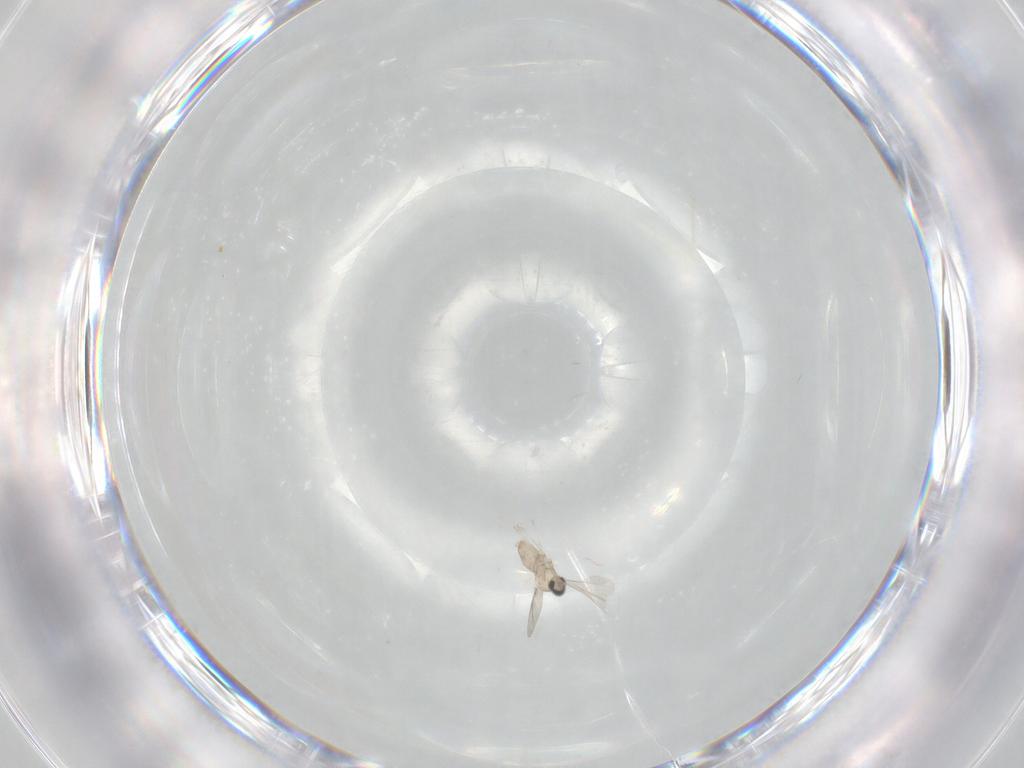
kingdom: Animalia
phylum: Arthropoda
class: Insecta
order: Diptera
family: Cecidomyiidae
